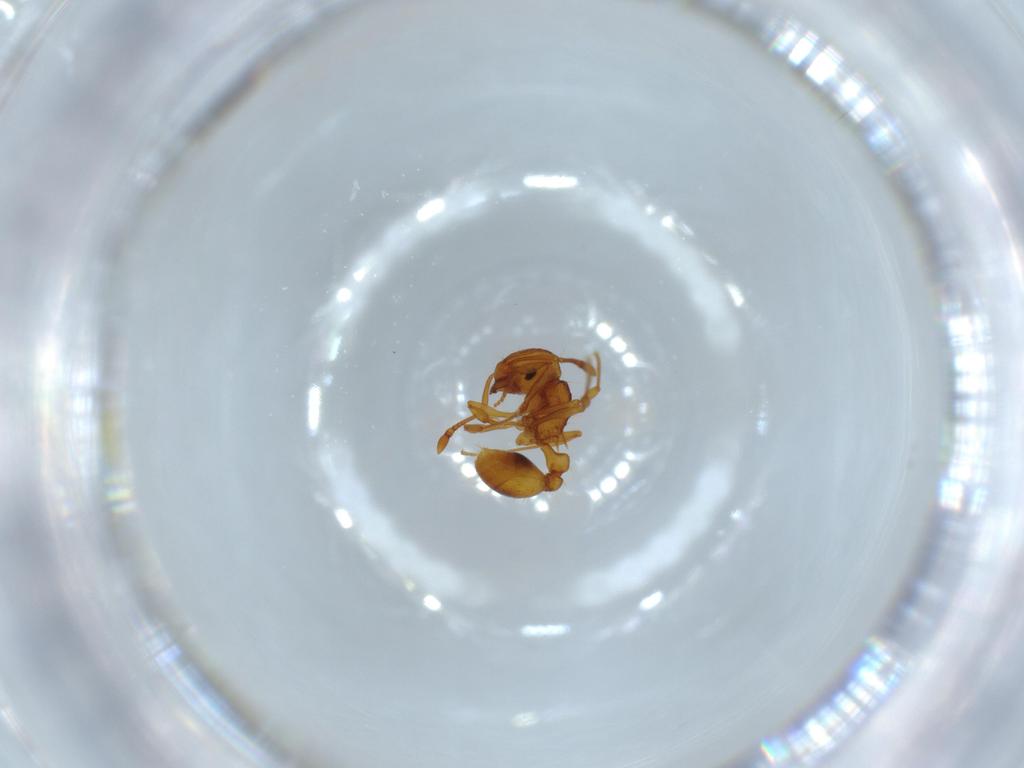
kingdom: Animalia
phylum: Arthropoda
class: Insecta
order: Hymenoptera
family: Formicidae
